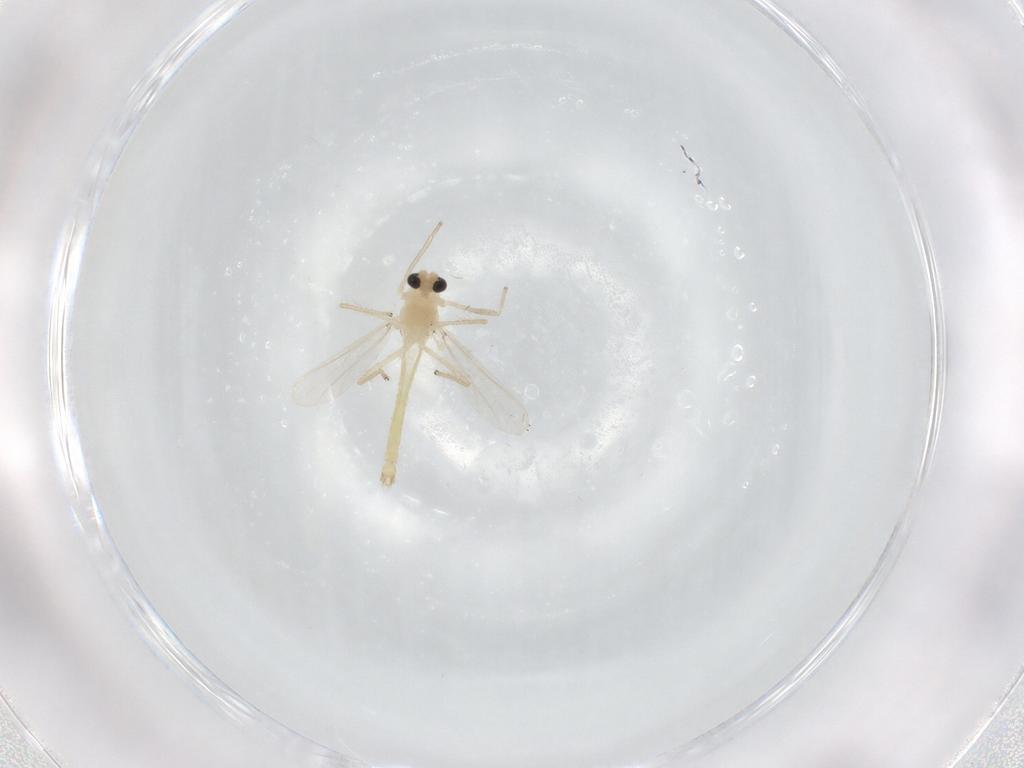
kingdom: Animalia
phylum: Arthropoda
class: Insecta
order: Diptera
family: Chironomidae
